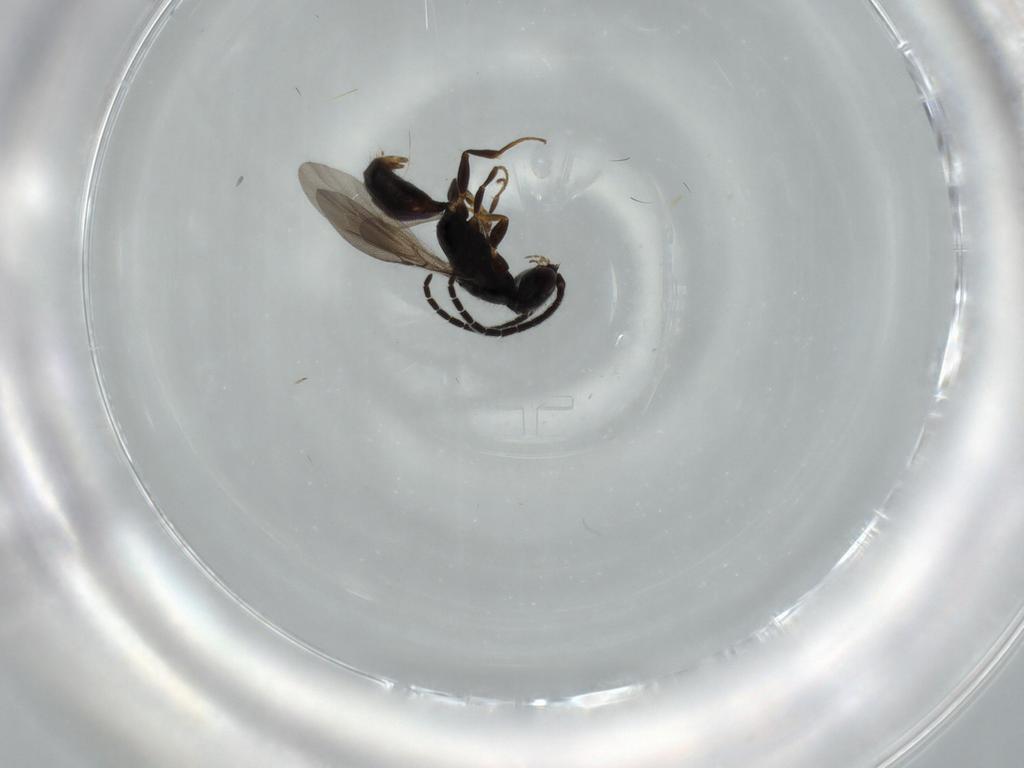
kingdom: Animalia
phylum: Arthropoda
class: Insecta
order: Hymenoptera
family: Bethylidae
